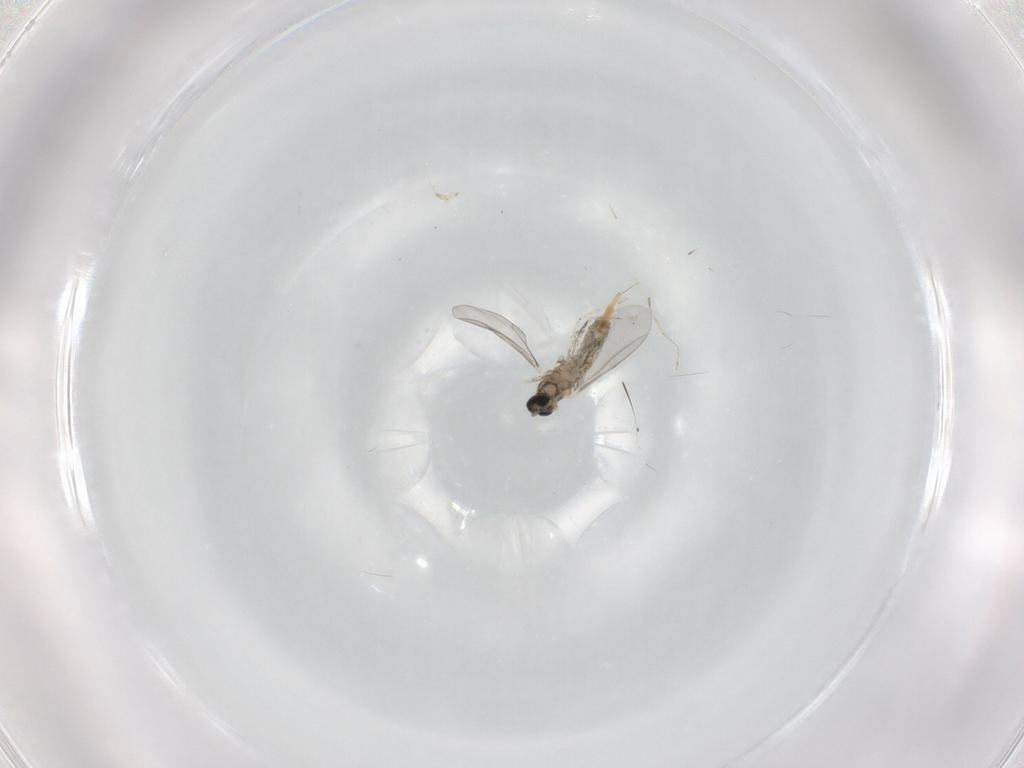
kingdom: Animalia
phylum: Arthropoda
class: Insecta
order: Diptera
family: Cecidomyiidae
